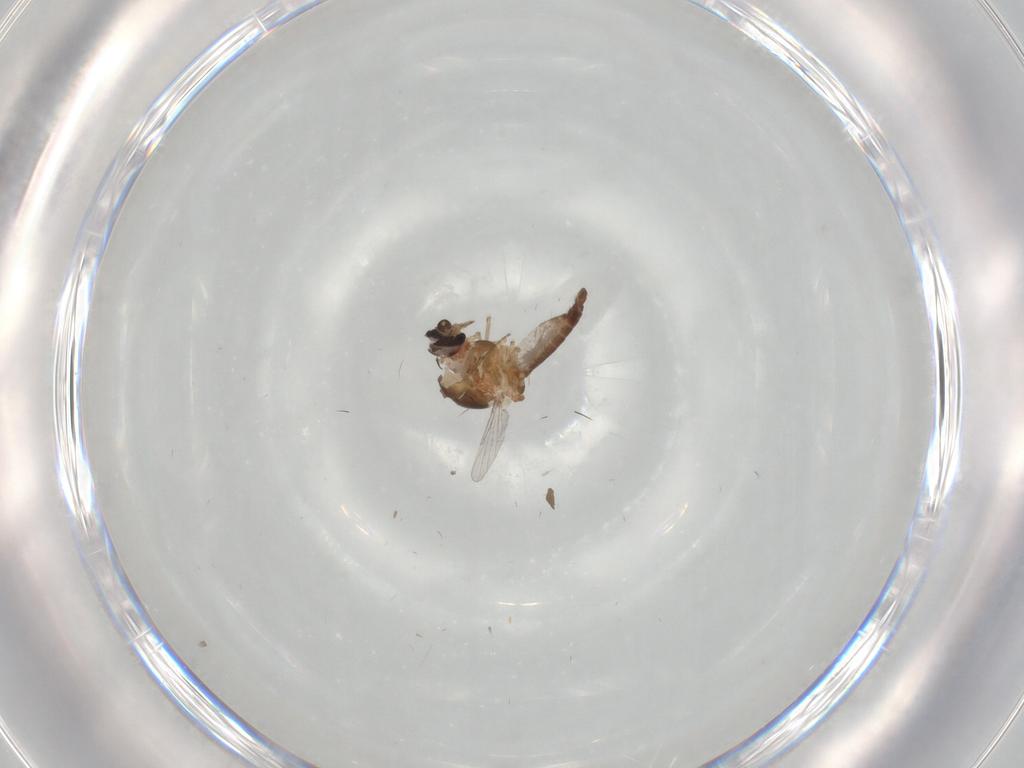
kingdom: Animalia
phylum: Arthropoda
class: Insecta
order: Diptera
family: Ceratopogonidae
